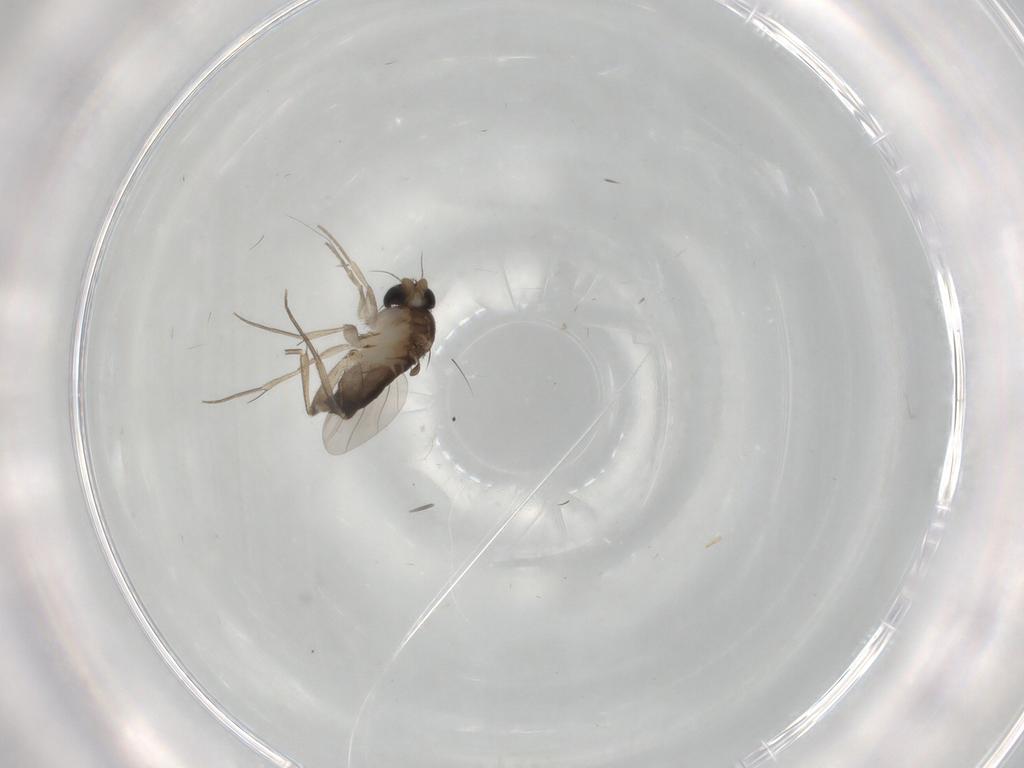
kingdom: Animalia
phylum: Arthropoda
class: Insecta
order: Diptera
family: Phoridae
